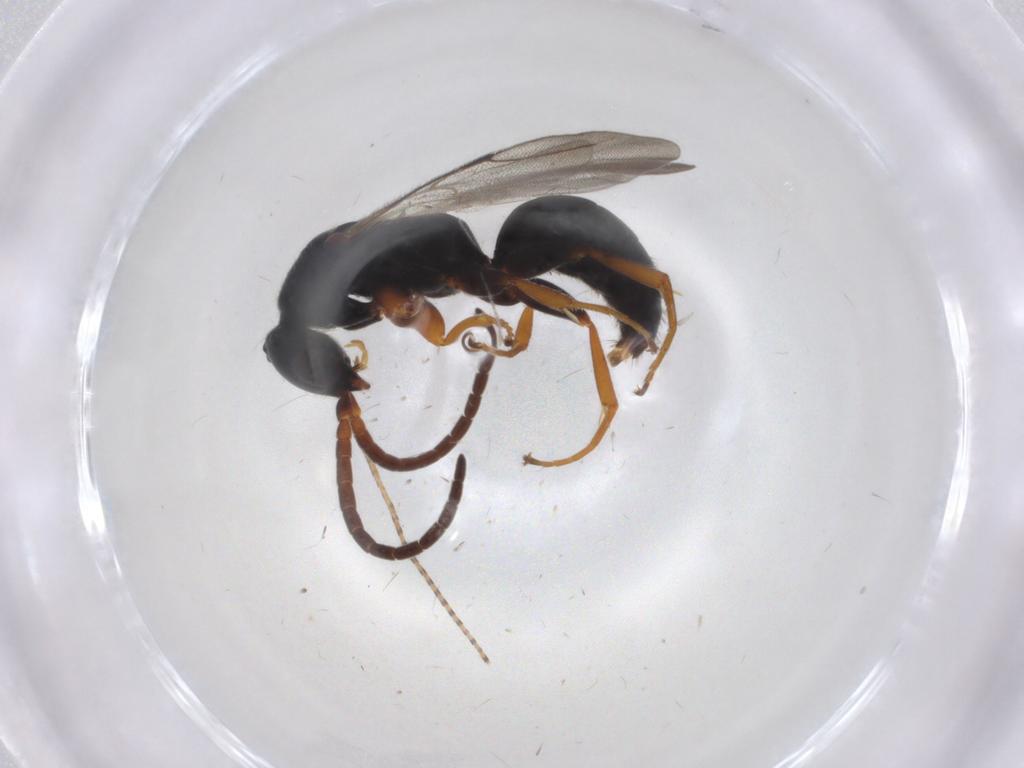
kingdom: Animalia
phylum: Arthropoda
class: Insecta
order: Hymenoptera
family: Bethylidae
